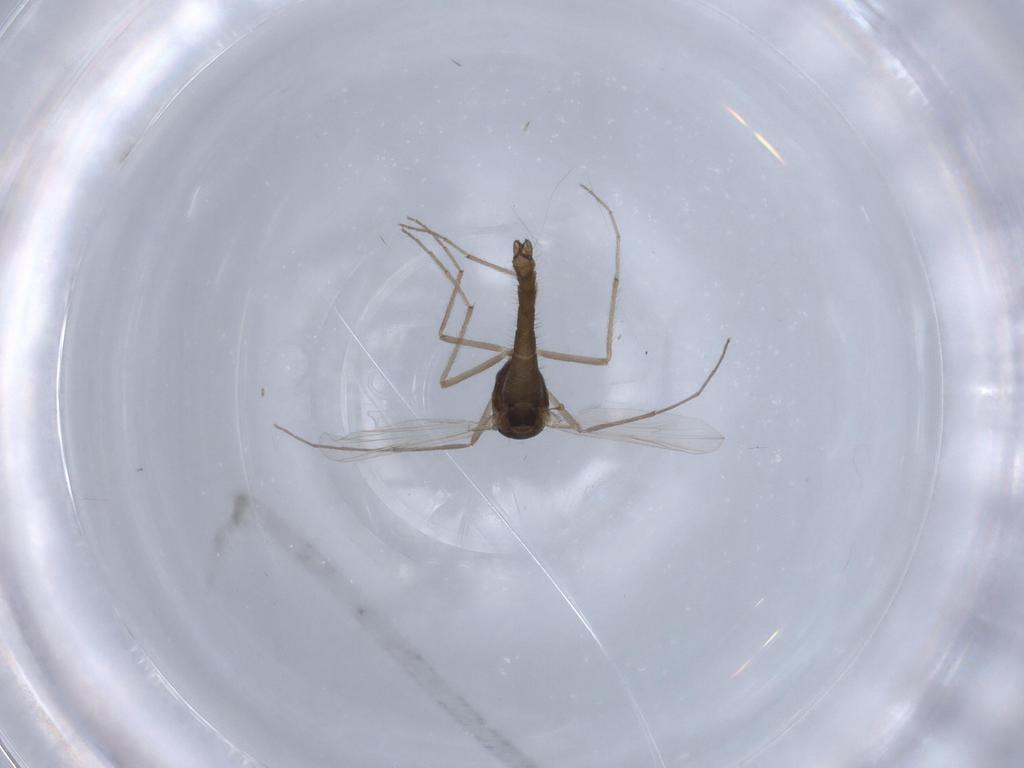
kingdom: Animalia
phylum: Arthropoda
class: Insecta
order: Diptera
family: Chironomidae
